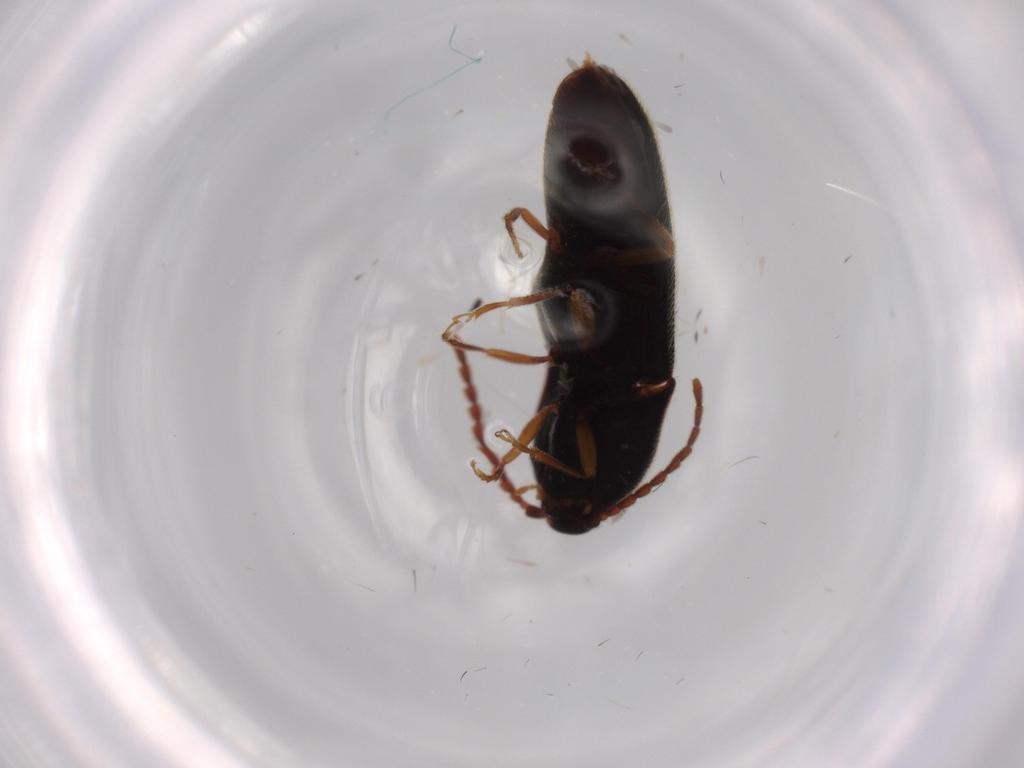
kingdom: Animalia
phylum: Arthropoda
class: Insecta
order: Coleoptera
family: Elateridae
